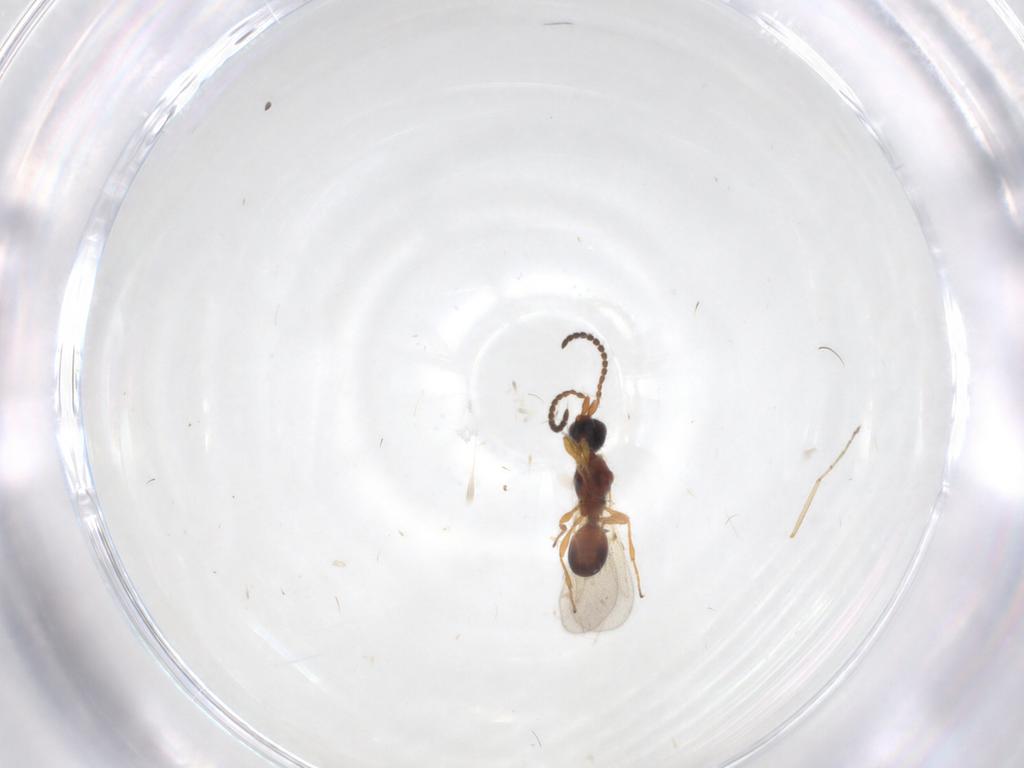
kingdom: Animalia
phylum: Arthropoda
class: Insecta
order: Hymenoptera
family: Diapriidae
